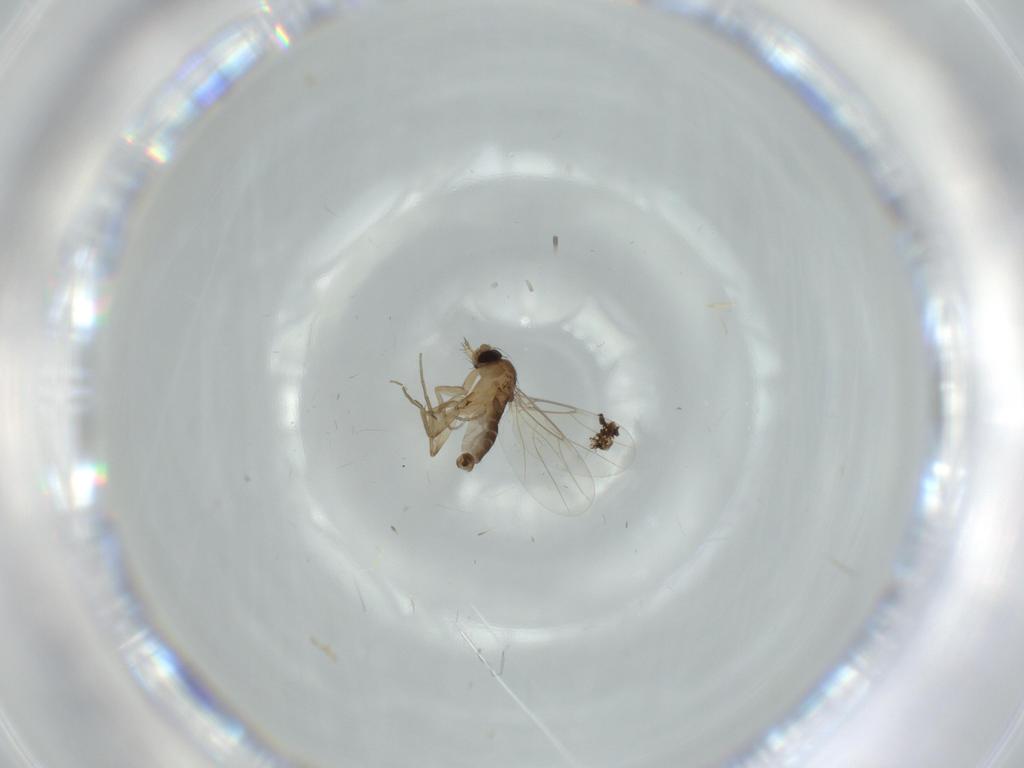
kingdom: Animalia
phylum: Arthropoda
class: Insecta
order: Diptera
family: Phoridae
